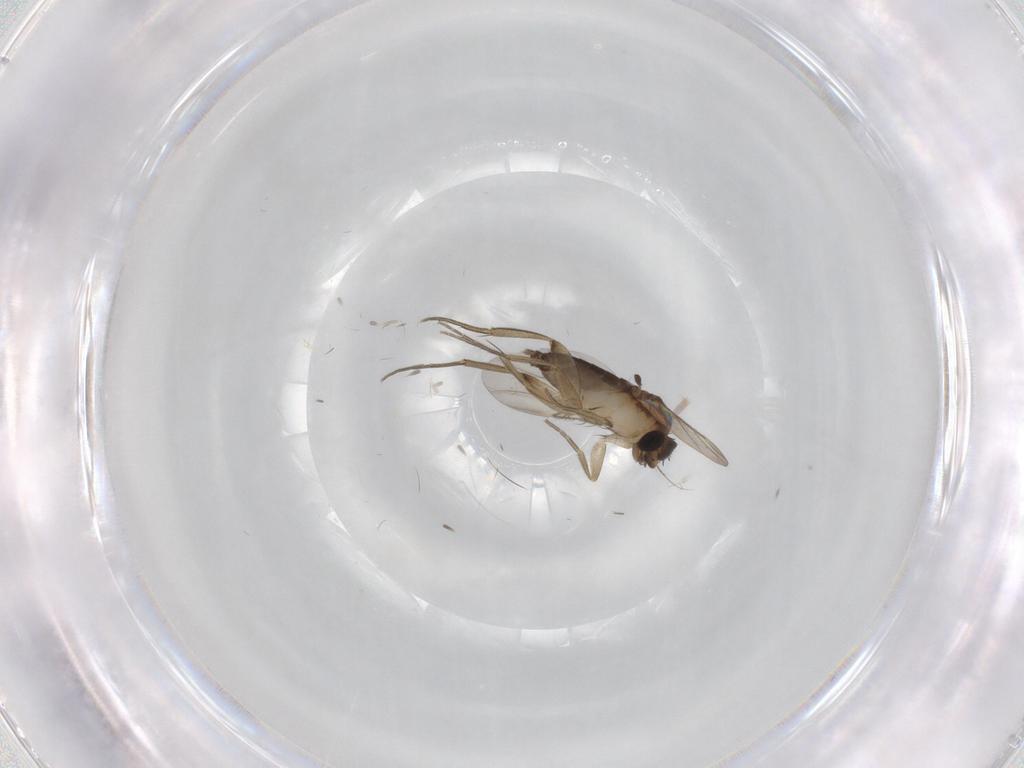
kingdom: Animalia
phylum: Arthropoda
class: Insecta
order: Diptera
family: Phoridae
